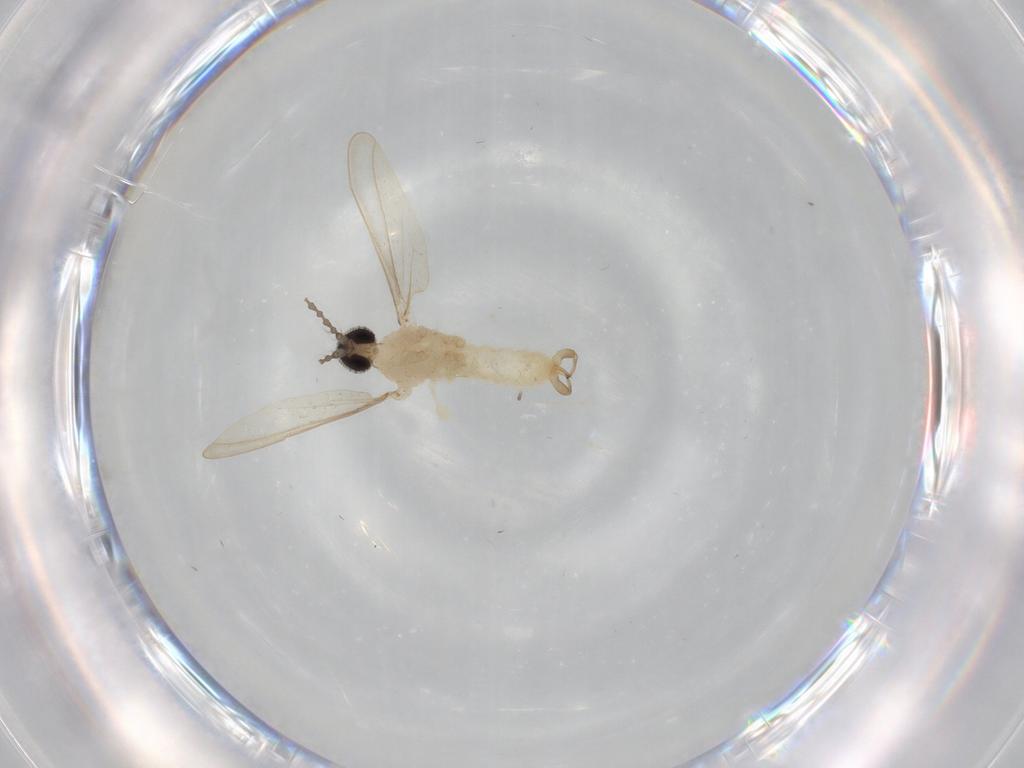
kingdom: Animalia
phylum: Arthropoda
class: Insecta
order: Diptera
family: Cecidomyiidae
